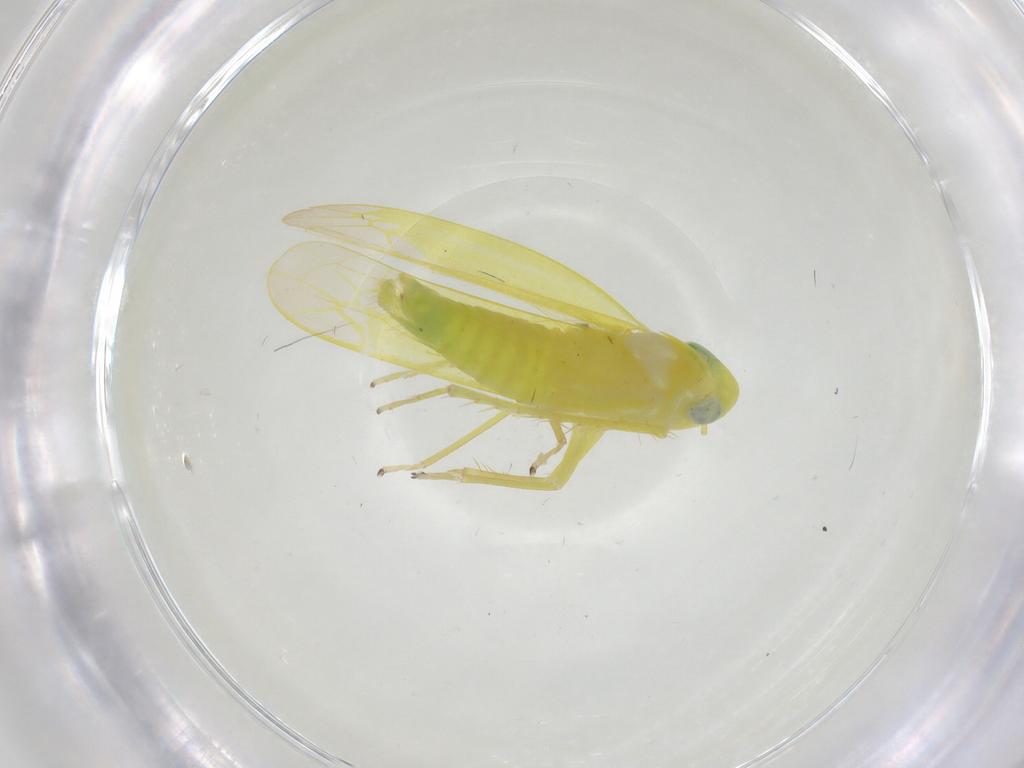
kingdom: Animalia
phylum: Arthropoda
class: Insecta
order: Hemiptera
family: Cicadellidae
